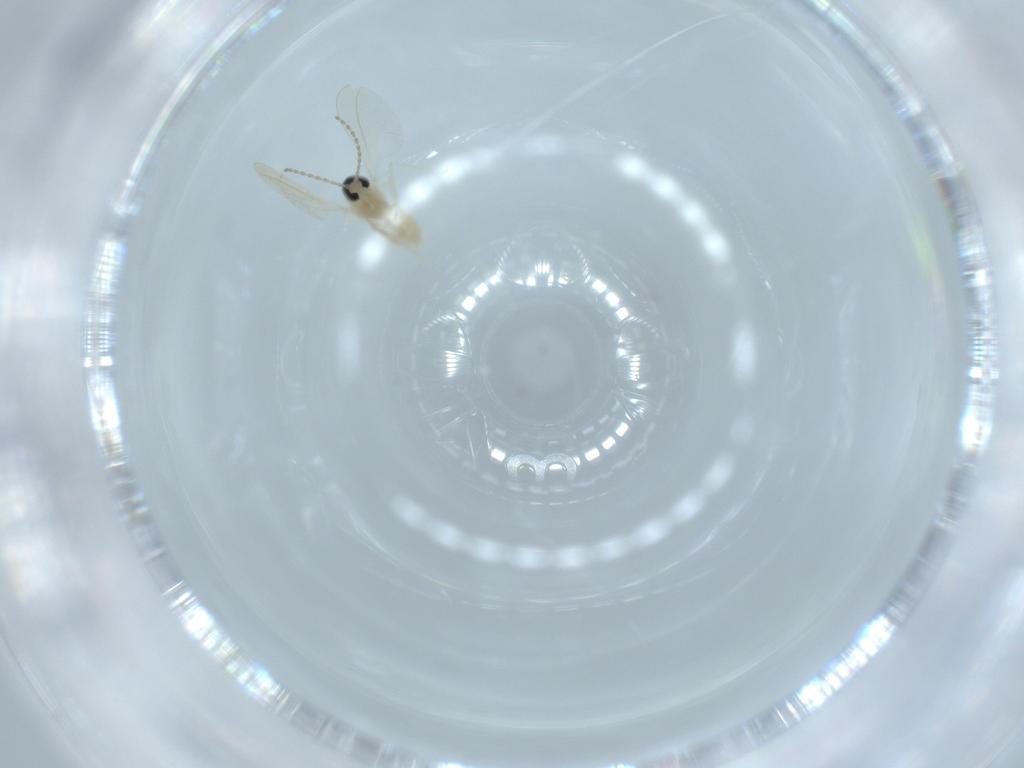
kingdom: Animalia
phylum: Arthropoda
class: Insecta
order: Diptera
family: Cecidomyiidae
